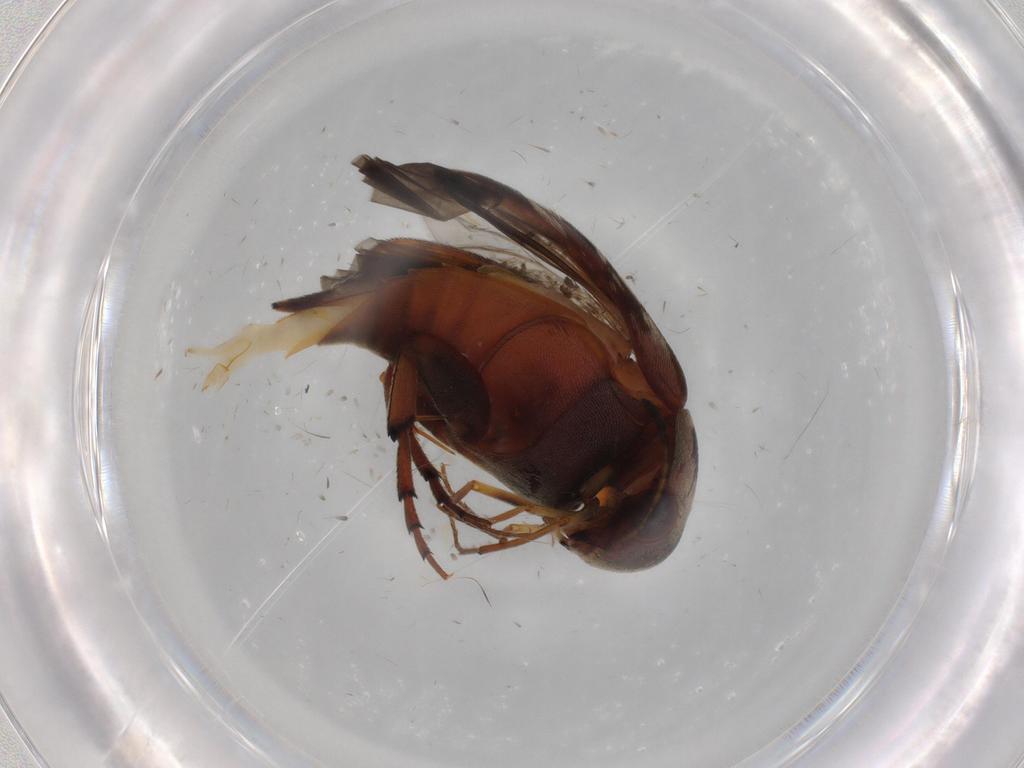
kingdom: Animalia
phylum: Arthropoda
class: Insecta
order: Coleoptera
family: Mordellidae
